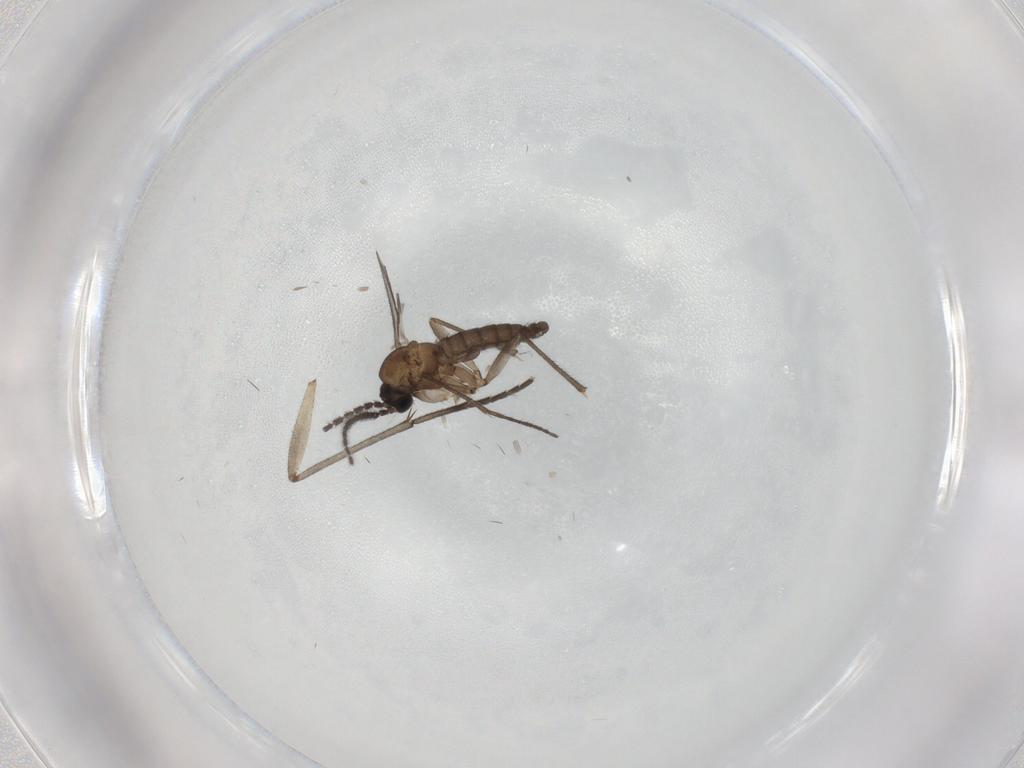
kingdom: Animalia
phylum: Arthropoda
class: Insecta
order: Diptera
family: Sciaridae
